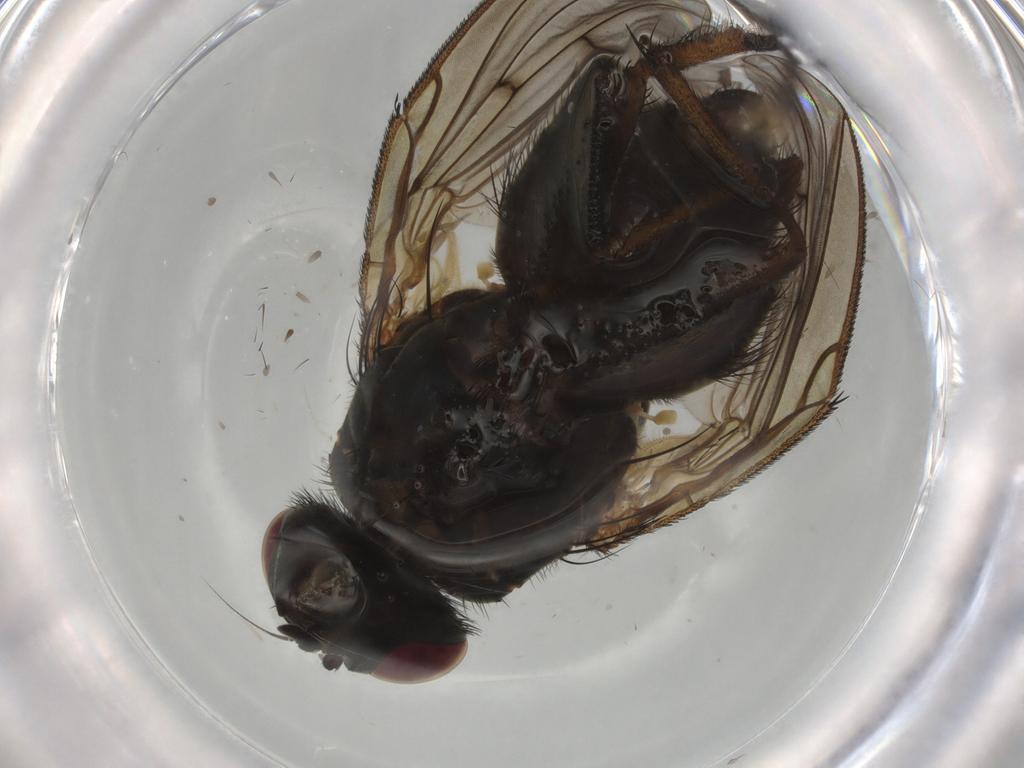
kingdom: Animalia
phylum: Arthropoda
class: Insecta
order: Diptera
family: Muscidae
